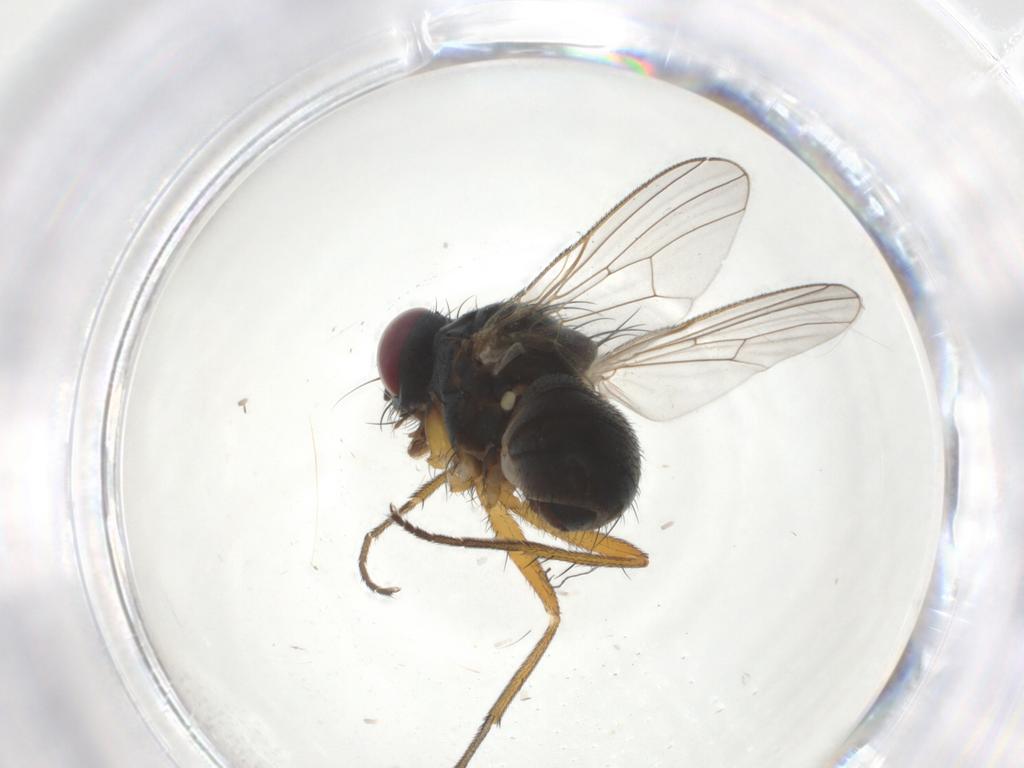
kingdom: Animalia
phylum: Arthropoda
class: Insecta
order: Diptera
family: Muscidae
